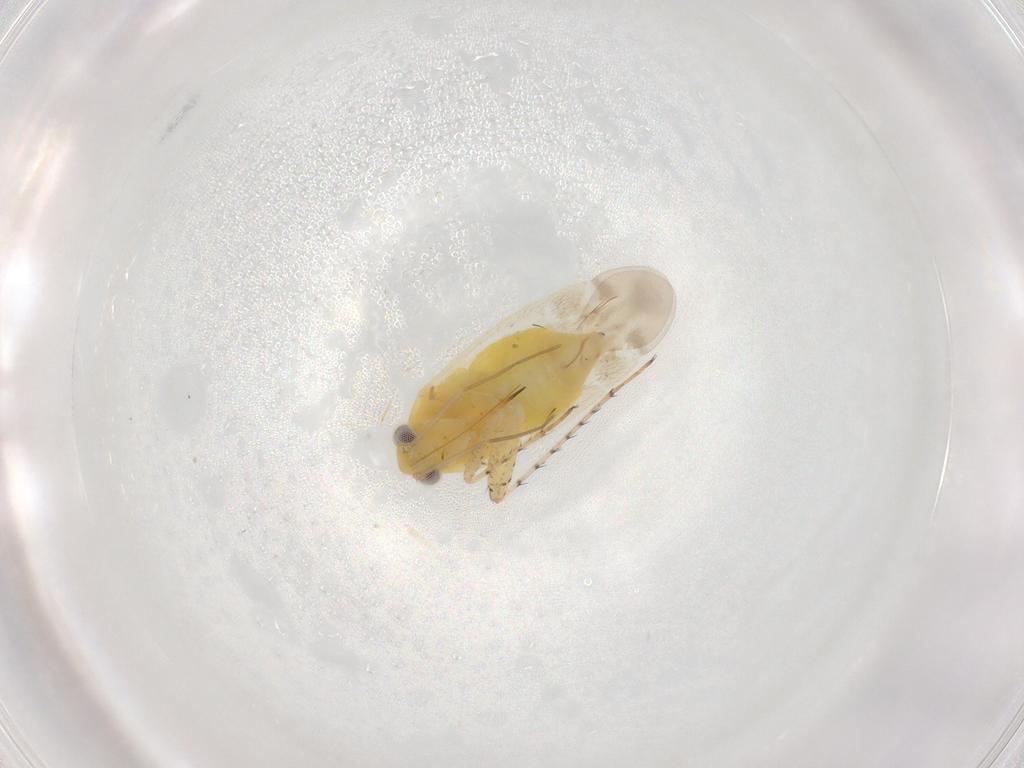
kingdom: Animalia
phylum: Arthropoda
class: Insecta
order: Hemiptera
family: Miridae
